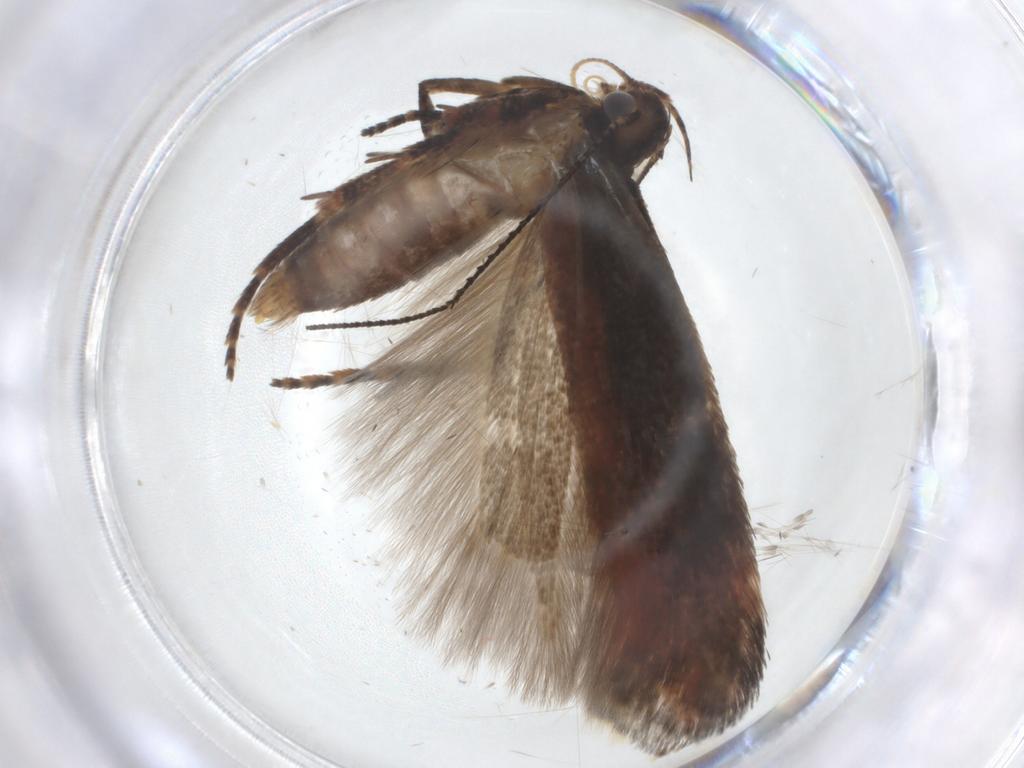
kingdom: Animalia
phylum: Arthropoda
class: Insecta
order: Lepidoptera
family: Gelechiidae
